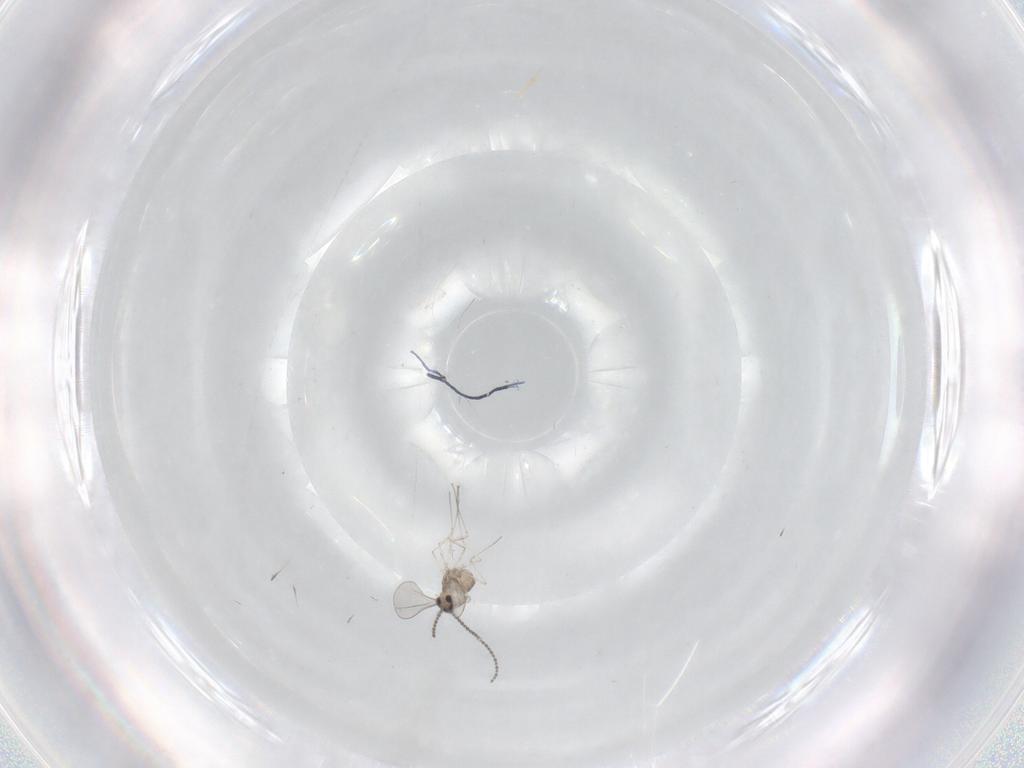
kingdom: Animalia
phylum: Arthropoda
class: Insecta
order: Diptera
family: Cecidomyiidae
